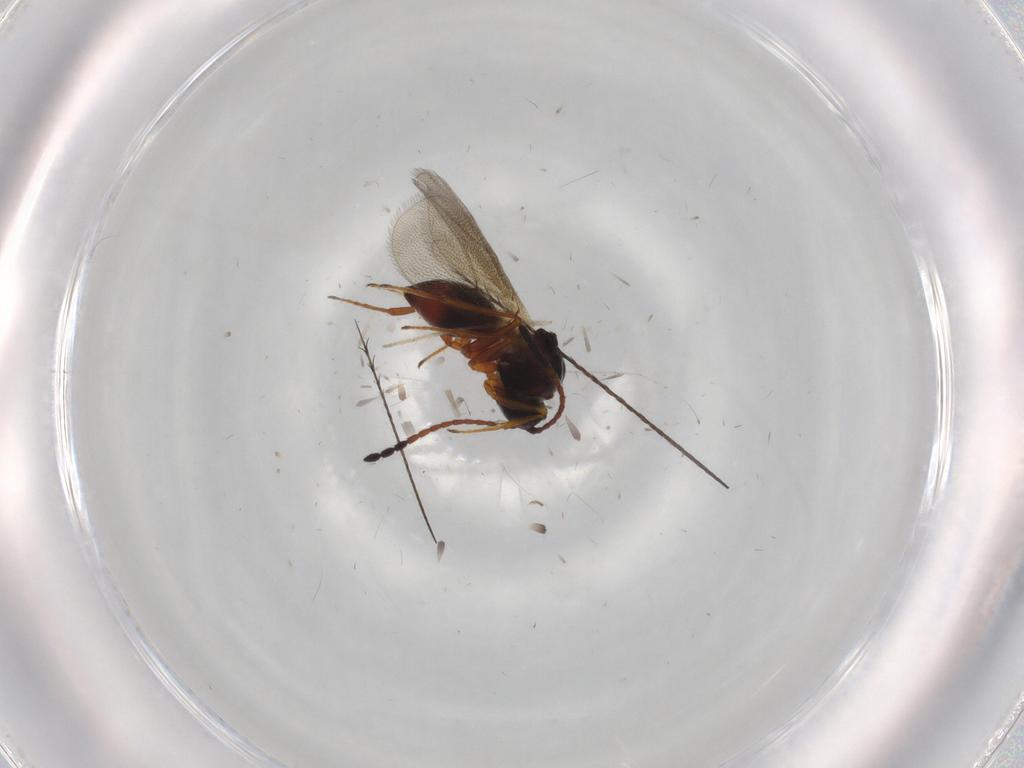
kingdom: Animalia
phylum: Arthropoda
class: Insecta
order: Hymenoptera
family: Figitidae
